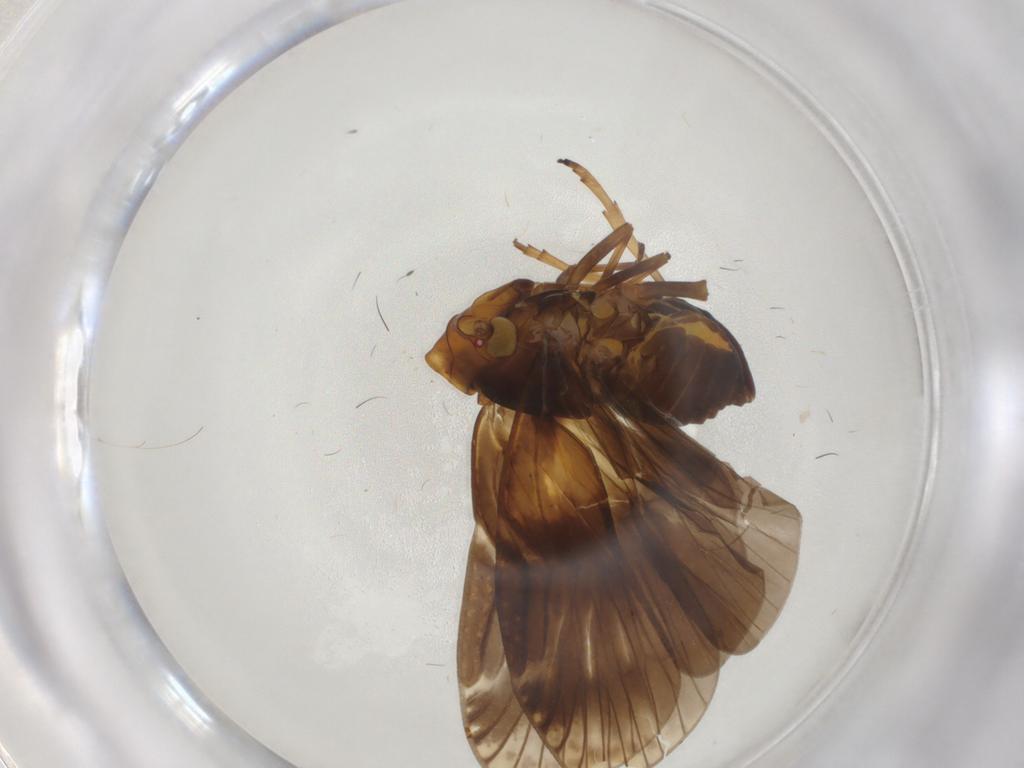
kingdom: Animalia
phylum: Arthropoda
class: Insecta
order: Hemiptera
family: Cixiidae
